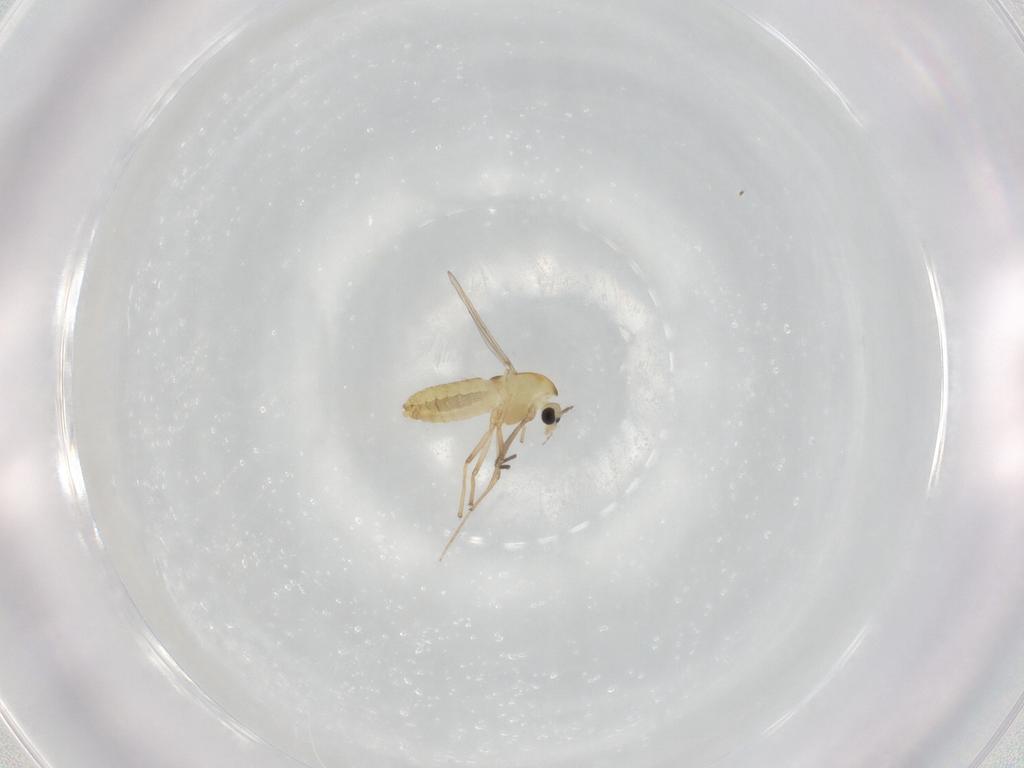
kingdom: Animalia
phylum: Arthropoda
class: Insecta
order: Diptera
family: Chironomidae
